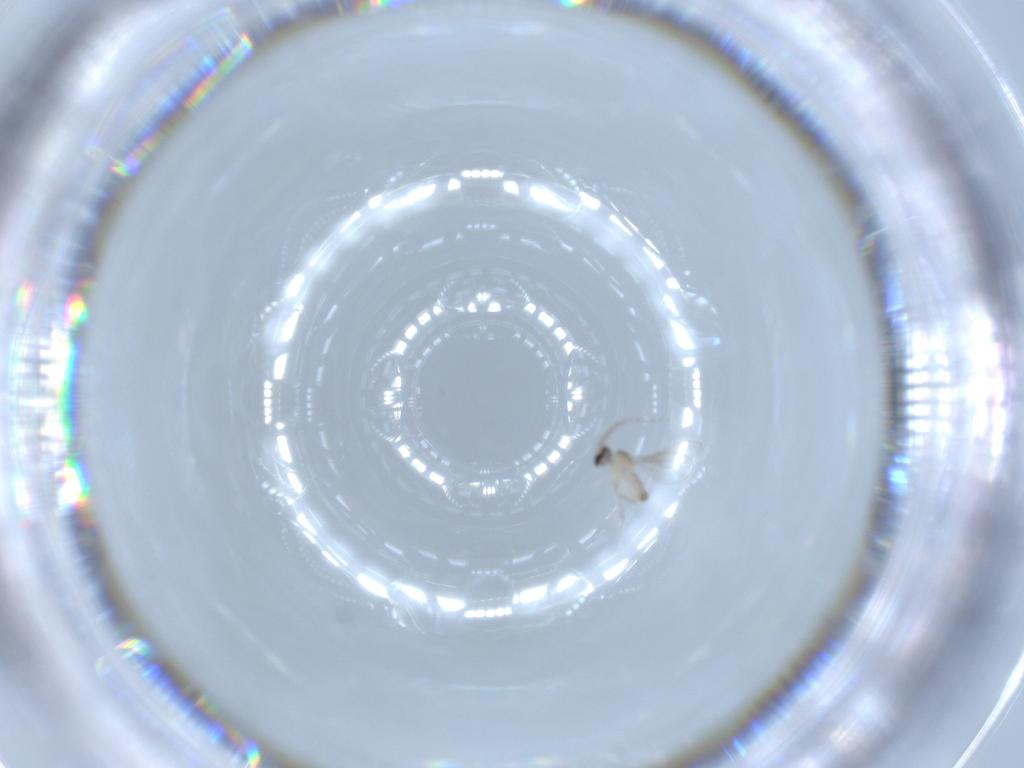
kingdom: Animalia
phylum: Arthropoda
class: Insecta
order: Diptera
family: Cecidomyiidae
